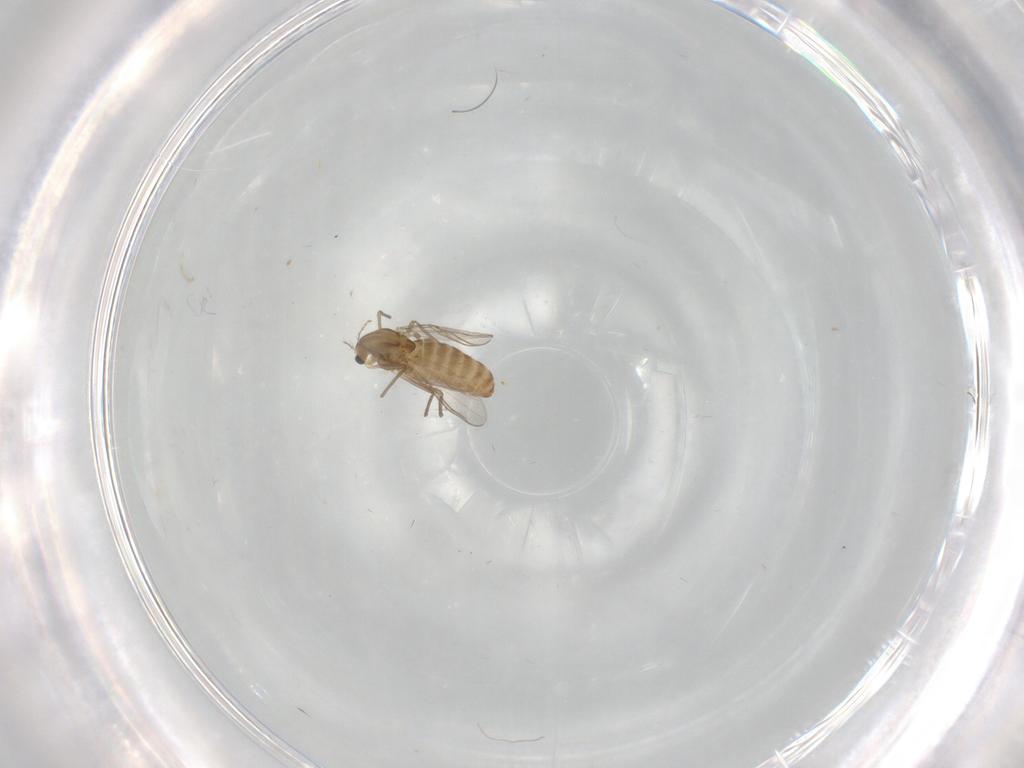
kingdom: Animalia
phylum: Arthropoda
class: Insecta
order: Diptera
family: Chironomidae
